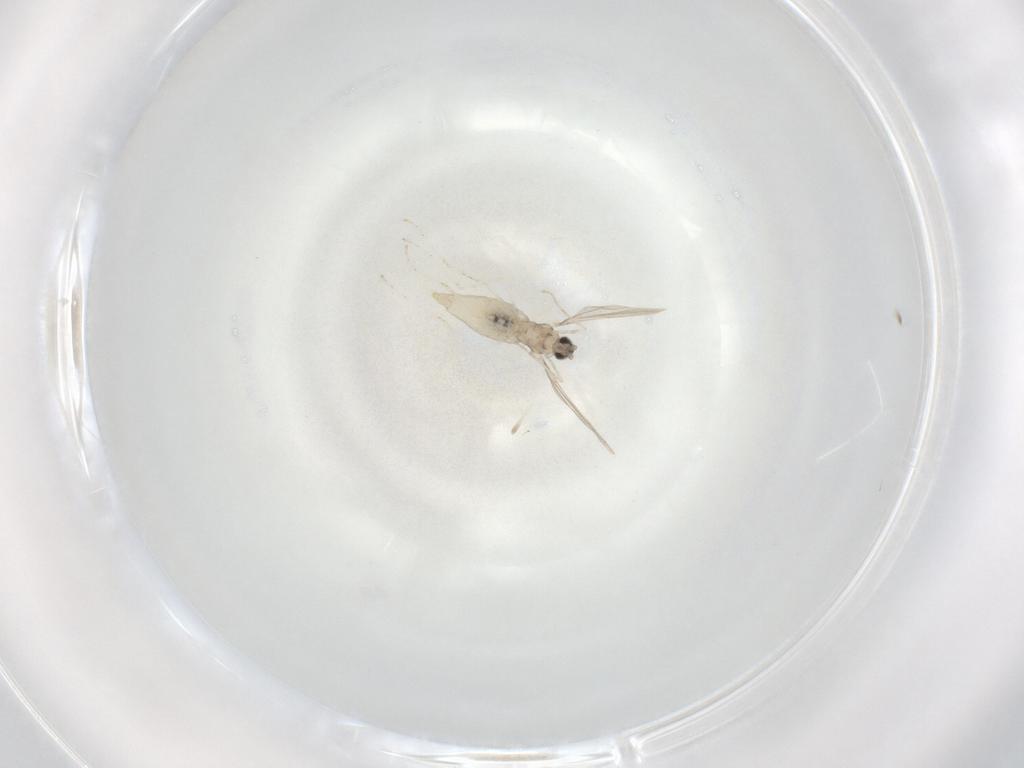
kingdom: Animalia
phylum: Arthropoda
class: Insecta
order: Diptera
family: Cecidomyiidae
